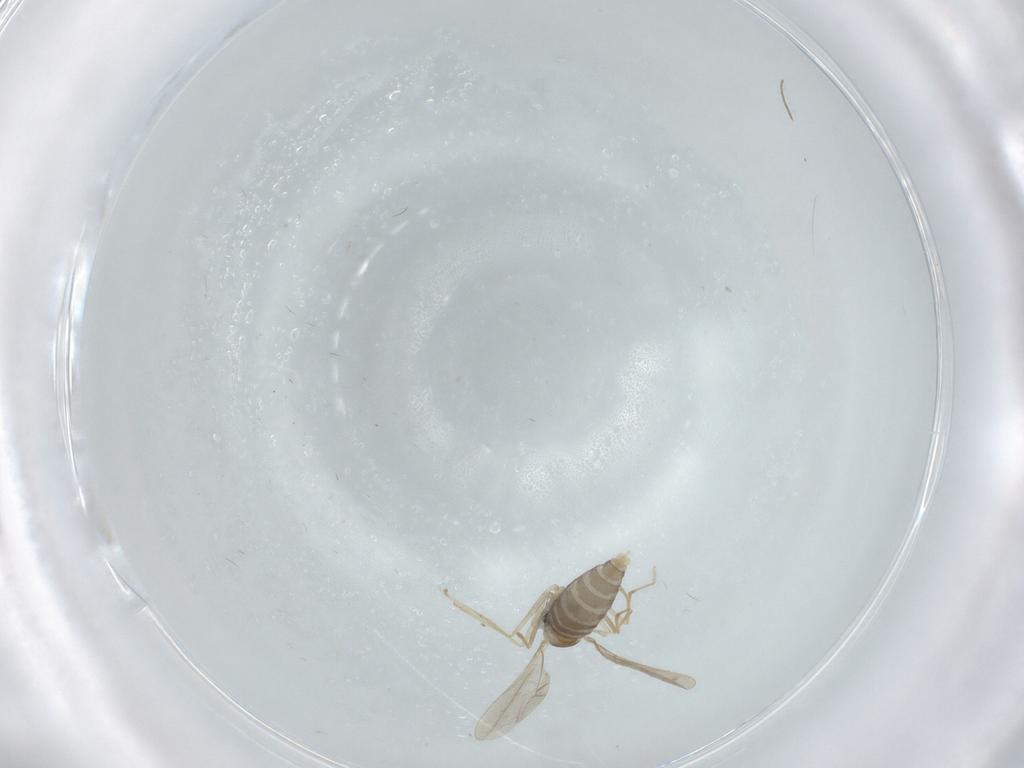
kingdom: Animalia
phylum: Arthropoda
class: Insecta
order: Diptera
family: Cecidomyiidae
